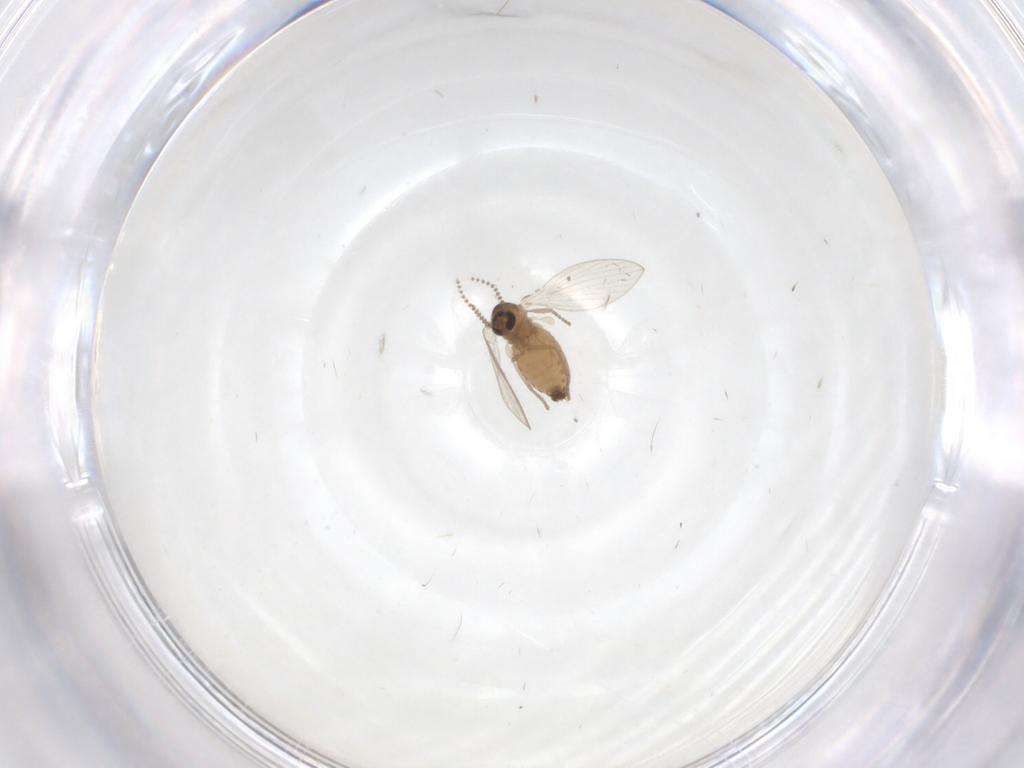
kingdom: Animalia
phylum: Arthropoda
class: Insecta
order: Diptera
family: Psychodidae
